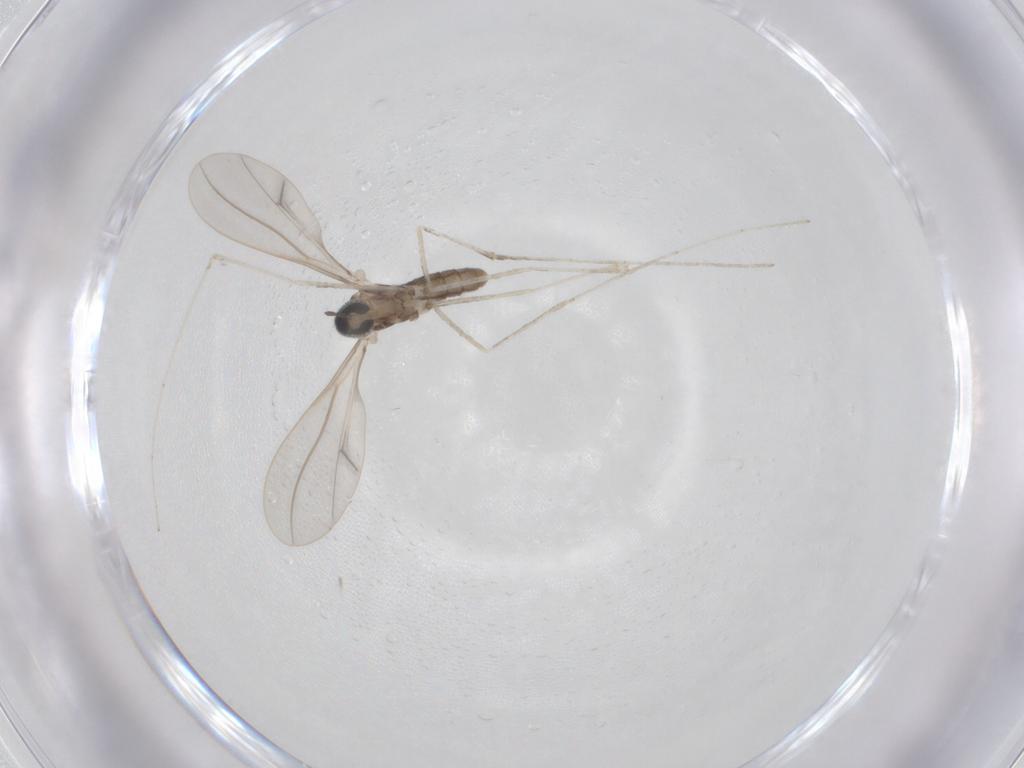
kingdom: Animalia
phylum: Arthropoda
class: Insecta
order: Diptera
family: Cecidomyiidae
